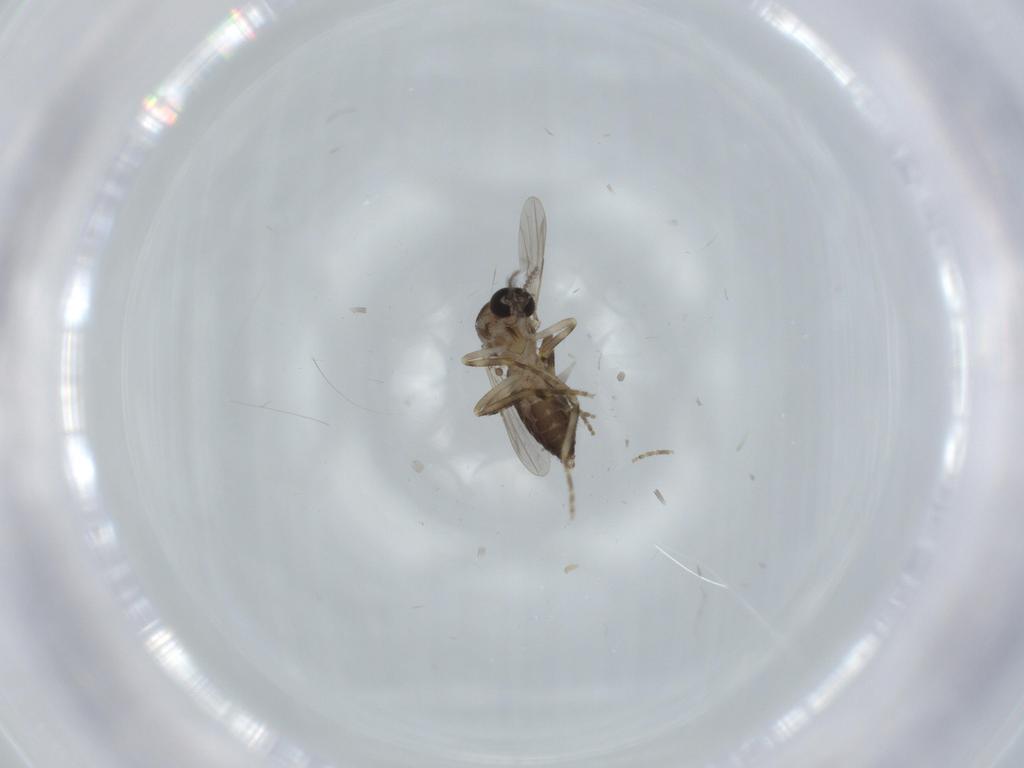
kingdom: Animalia
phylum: Arthropoda
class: Insecta
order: Diptera
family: Ceratopogonidae
